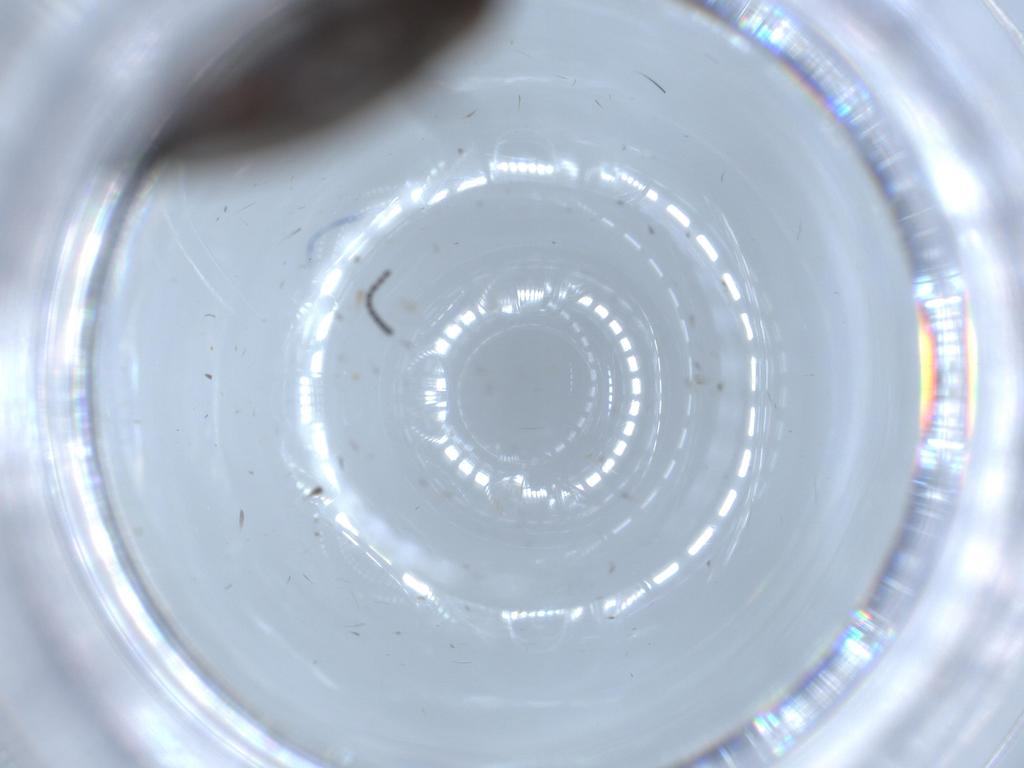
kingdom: Animalia
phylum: Arthropoda
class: Insecta
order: Diptera
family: Sciaridae
